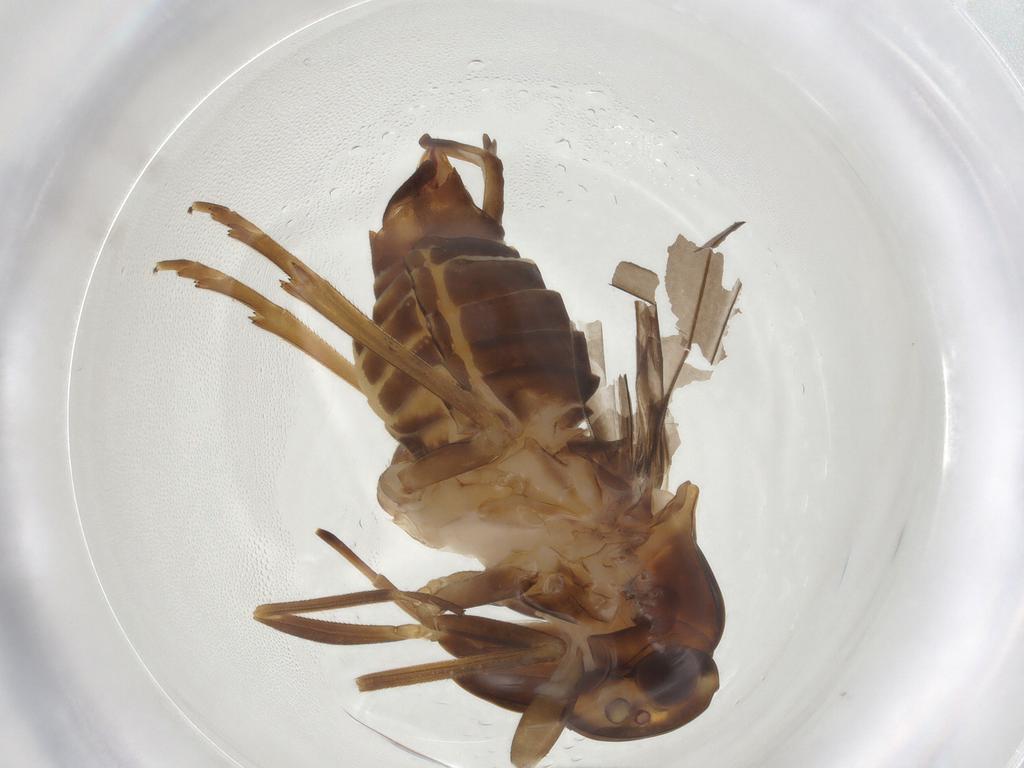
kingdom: Animalia
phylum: Arthropoda
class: Insecta
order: Hemiptera
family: Cixiidae
